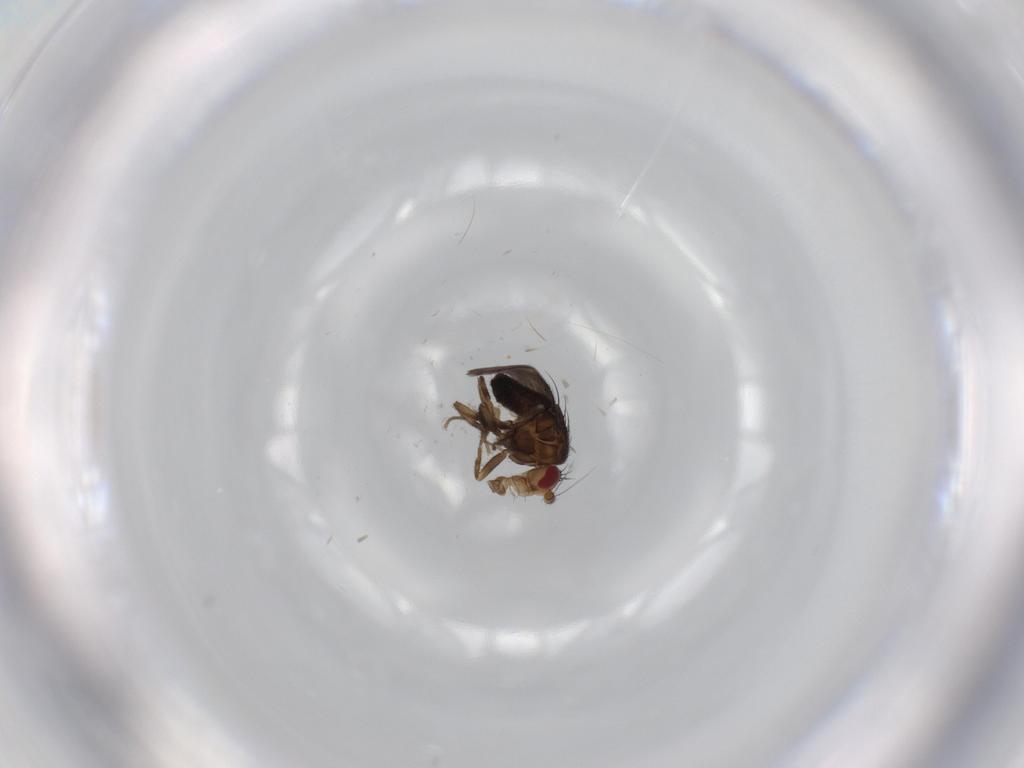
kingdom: Animalia
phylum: Arthropoda
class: Insecta
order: Diptera
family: Sphaeroceridae
